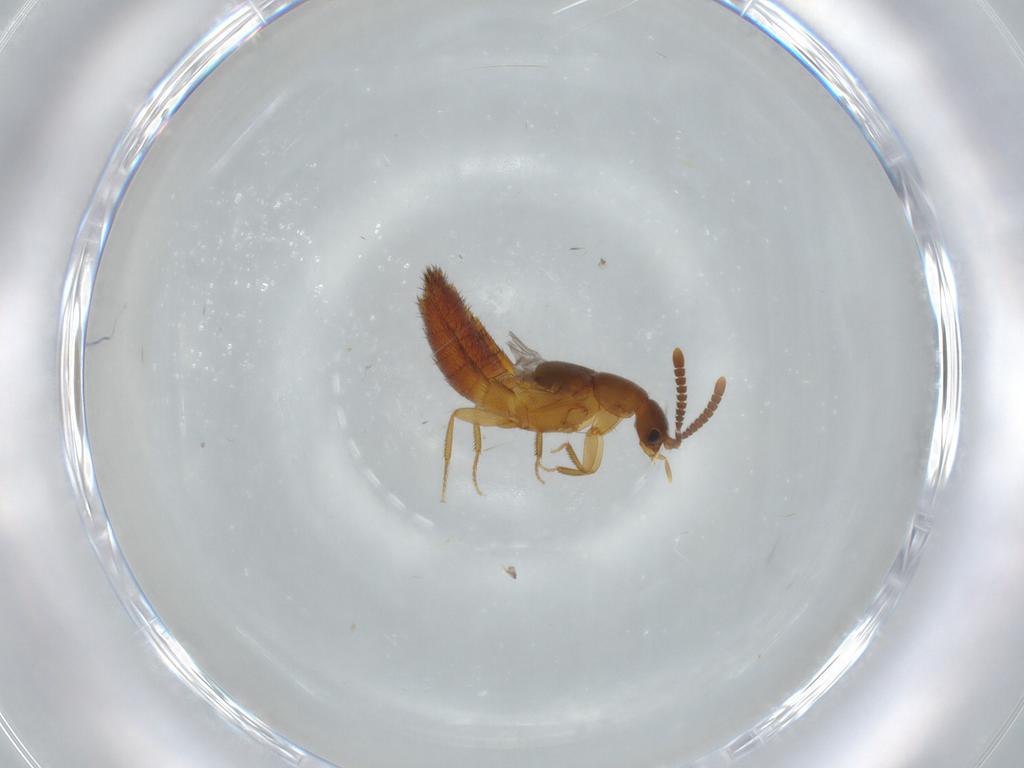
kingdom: Animalia
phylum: Arthropoda
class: Insecta
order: Coleoptera
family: Staphylinidae
